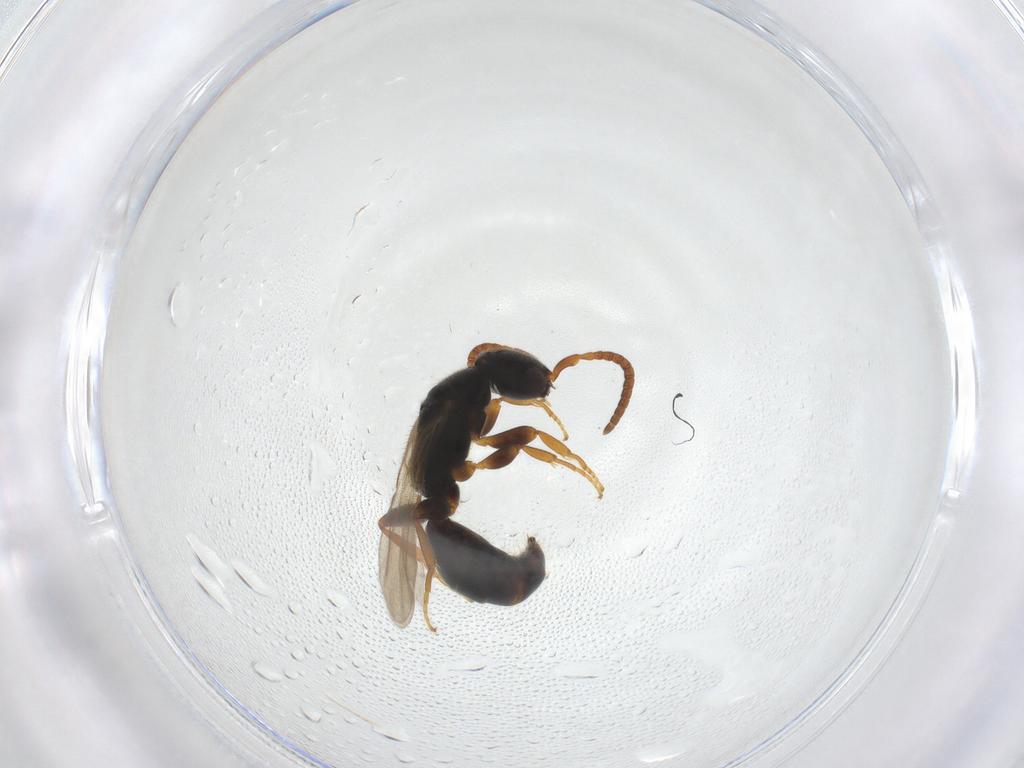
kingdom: Animalia
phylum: Arthropoda
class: Insecta
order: Hymenoptera
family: Bethylidae
